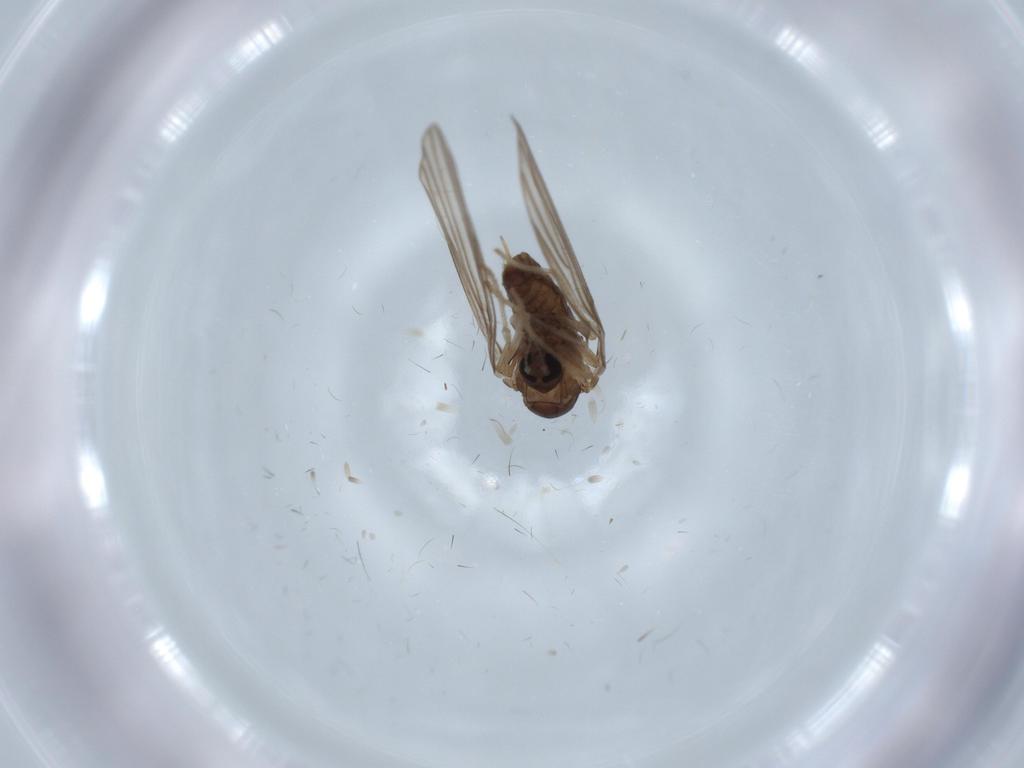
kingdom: Animalia
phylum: Arthropoda
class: Insecta
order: Diptera
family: Psychodidae
